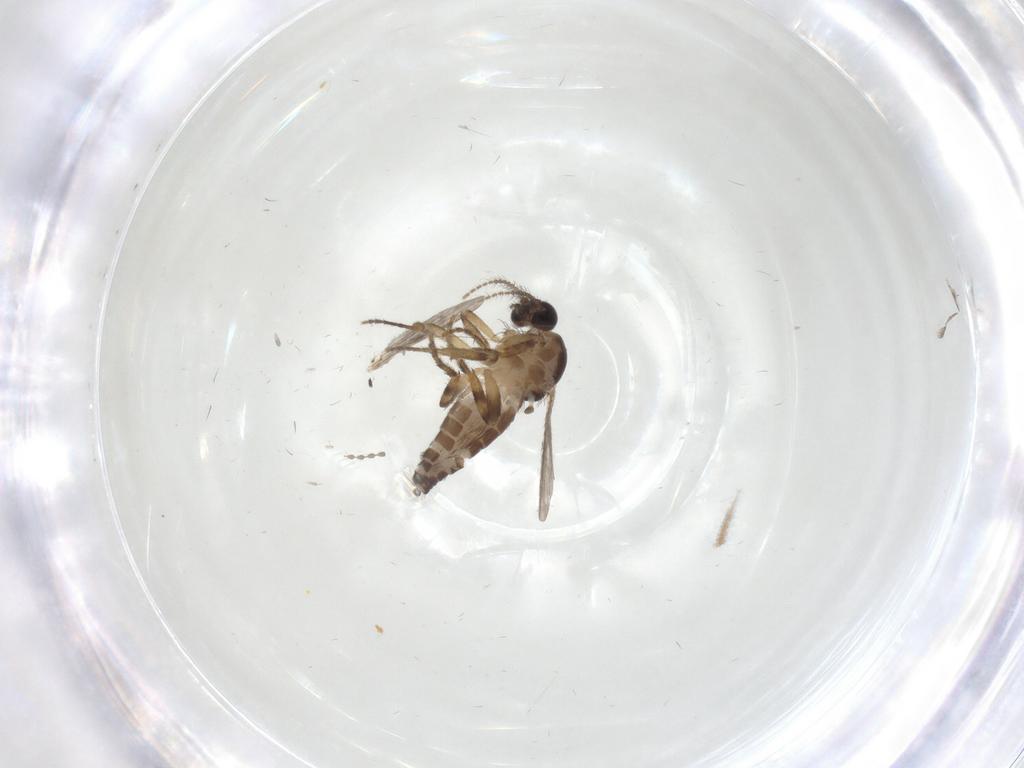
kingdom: Animalia
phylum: Arthropoda
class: Insecta
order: Diptera
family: Ceratopogonidae
